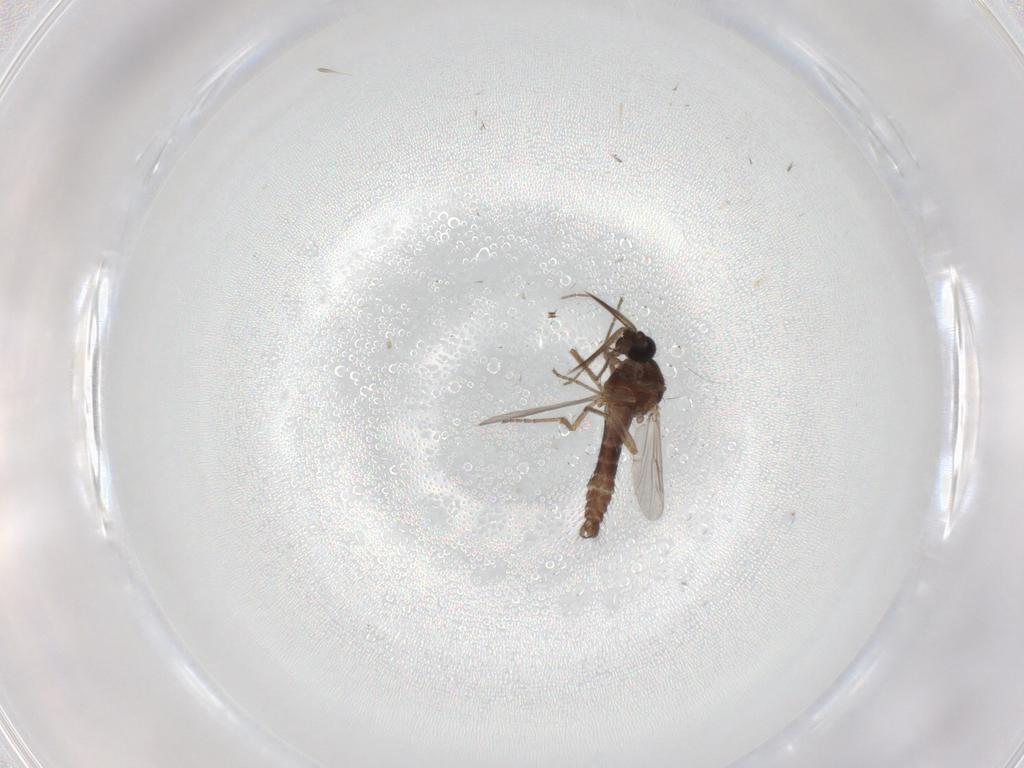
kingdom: Animalia
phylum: Arthropoda
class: Insecta
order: Diptera
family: Ceratopogonidae
